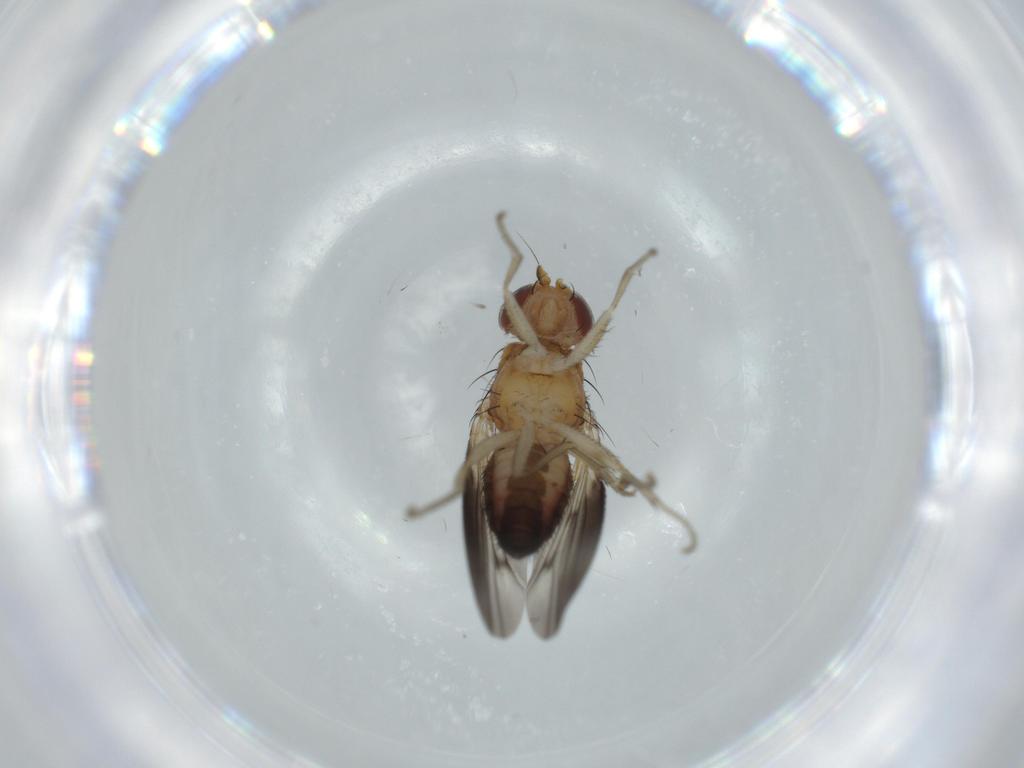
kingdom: Animalia
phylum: Arthropoda
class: Insecta
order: Diptera
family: Heleomyzidae
